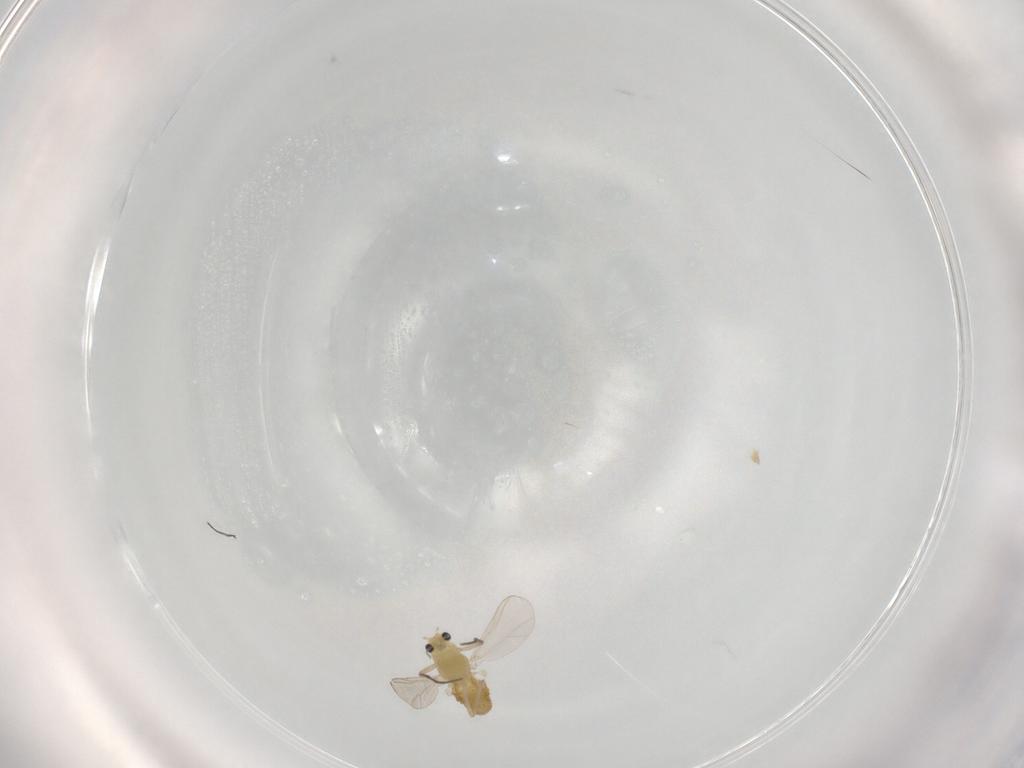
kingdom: Animalia
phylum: Arthropoda
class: Insecta
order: Diptera
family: Chironomidae
